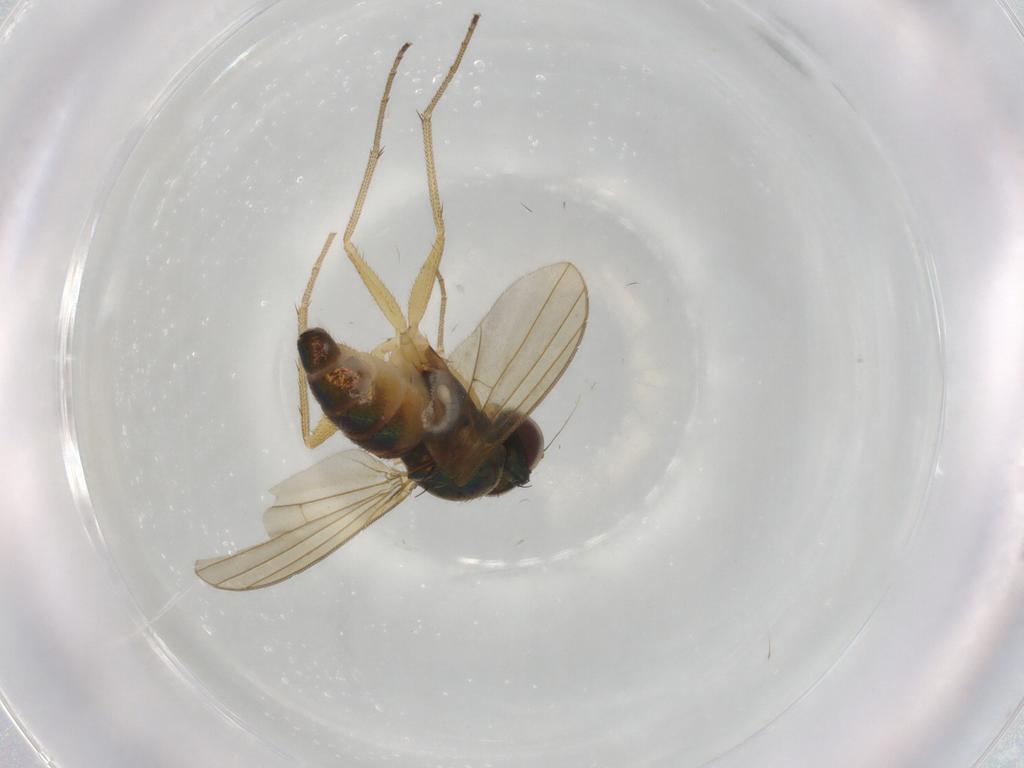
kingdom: Animalia
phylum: Arthropoda
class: Insecta
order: Diptera
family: Dolichopodidae
